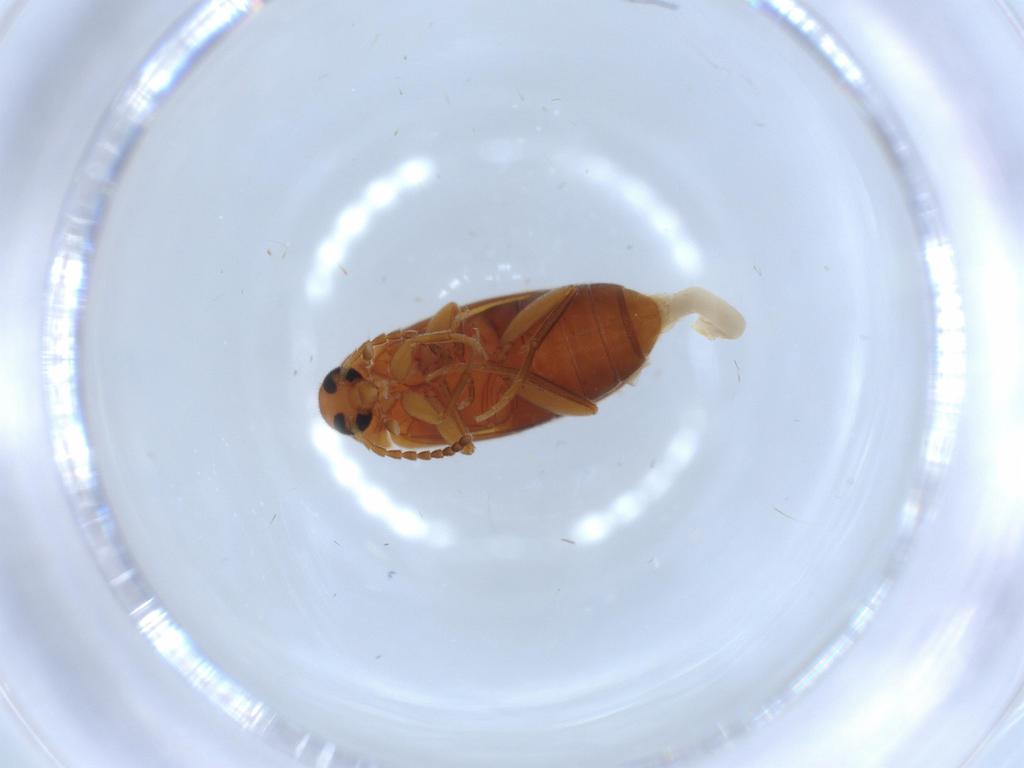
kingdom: Animalia
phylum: Arthropoda
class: Insecta
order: Coleoptera
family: Scraptiidae
